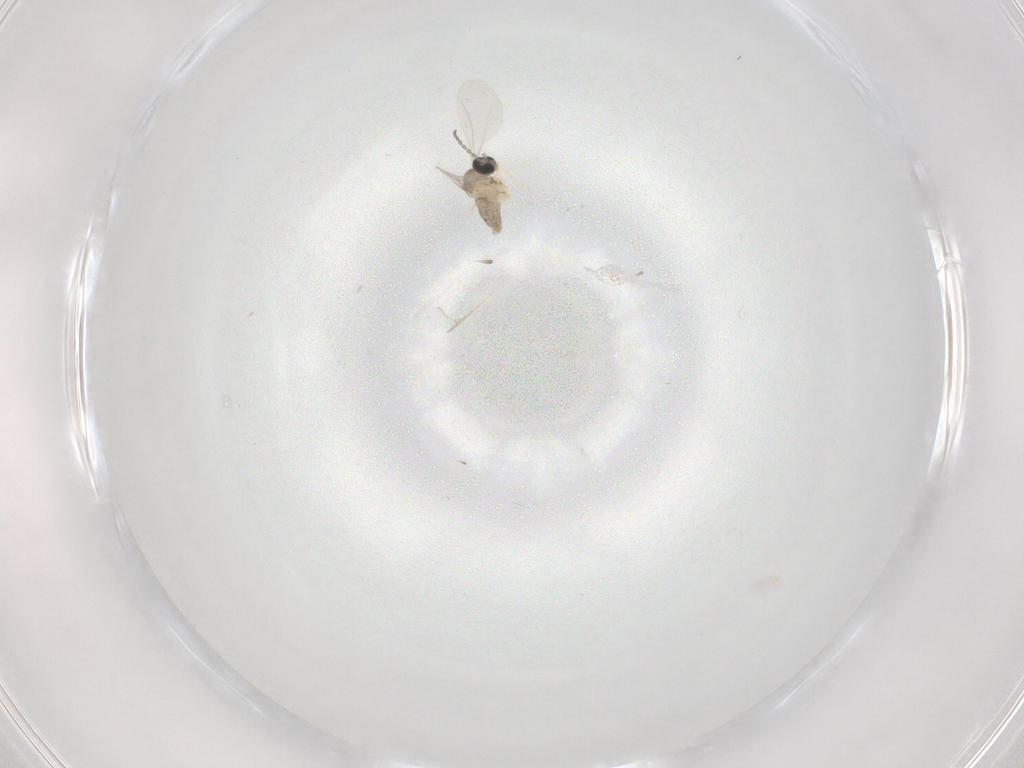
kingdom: Animalia
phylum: Arthropoda
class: Insecta
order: Diptera
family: Cecidomyiidae
